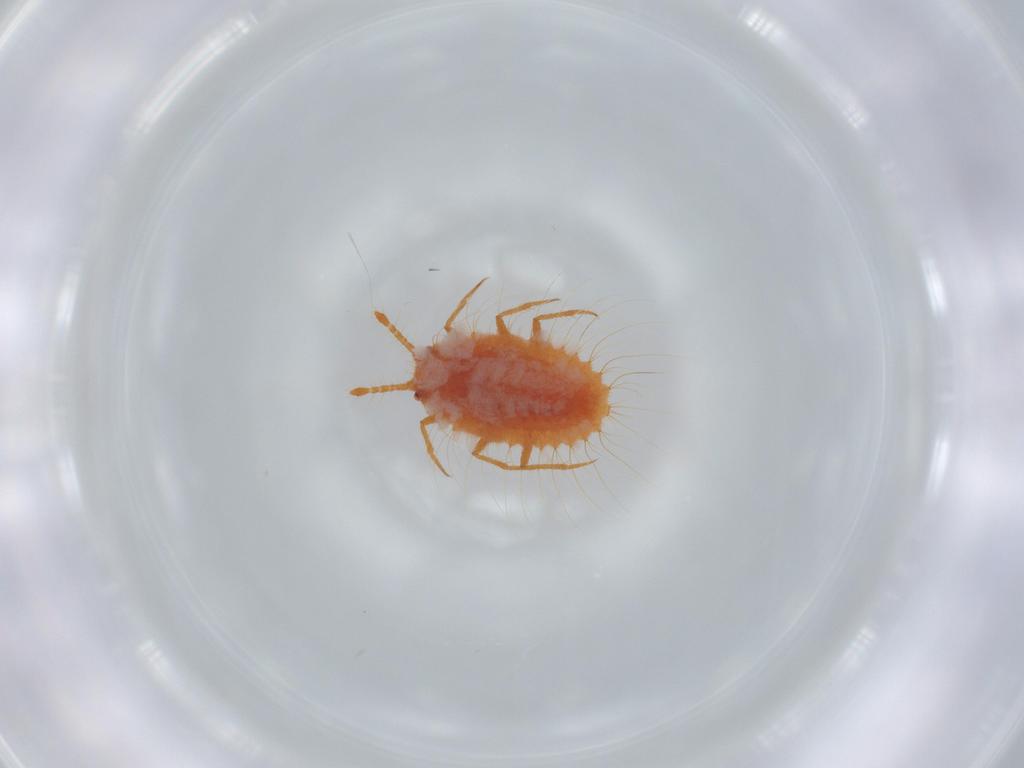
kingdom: Animalia
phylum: Arthropoda
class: Insecta
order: Hemiptera
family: Coccoidea_incertae_sedis
